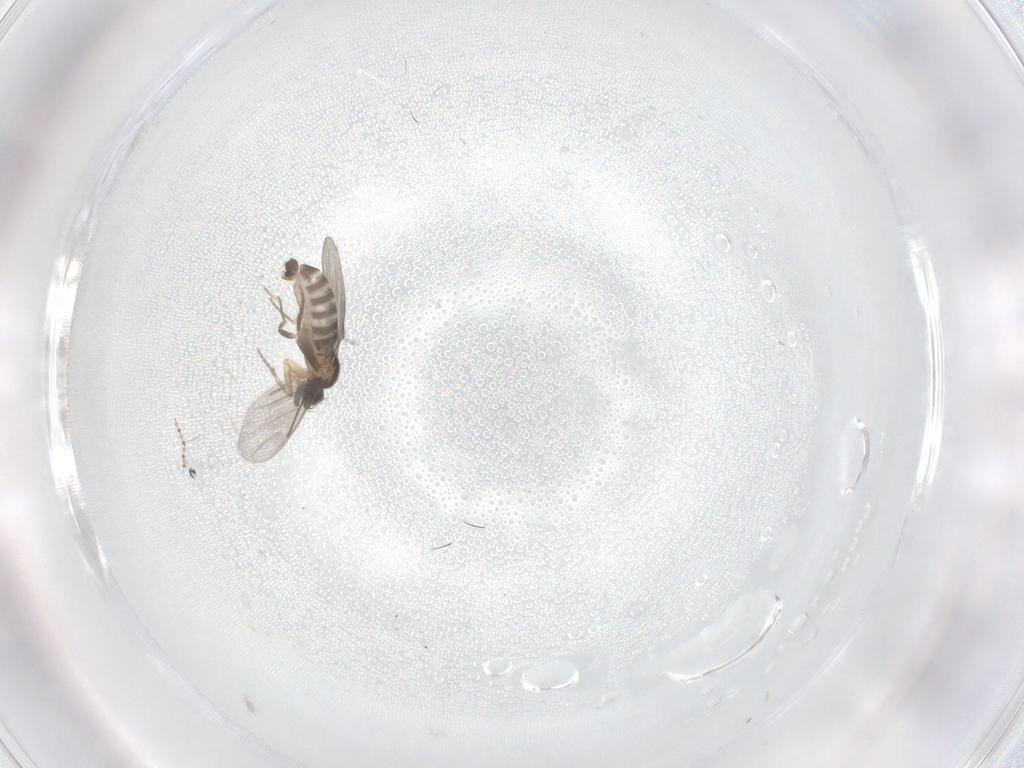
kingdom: Animalia
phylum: Arthropoda
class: Insecta
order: Diptera
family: Cecidomyiidae
